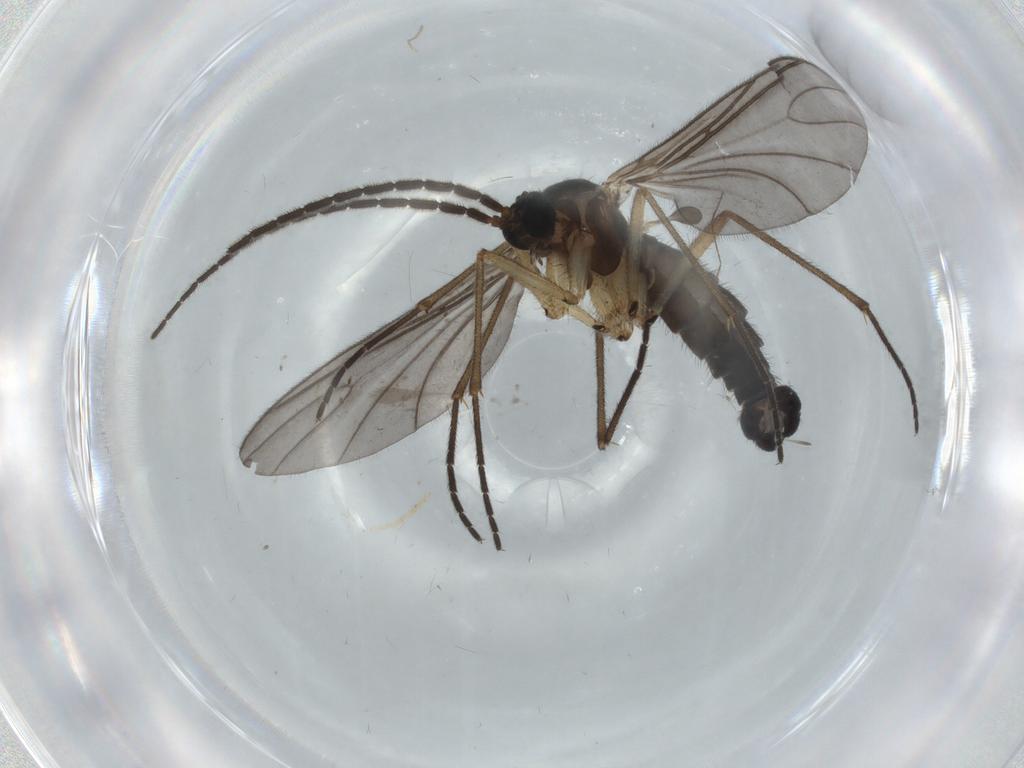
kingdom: Animalia
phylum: Arthropoda
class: Insecta
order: Diptera
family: Sciaridae
